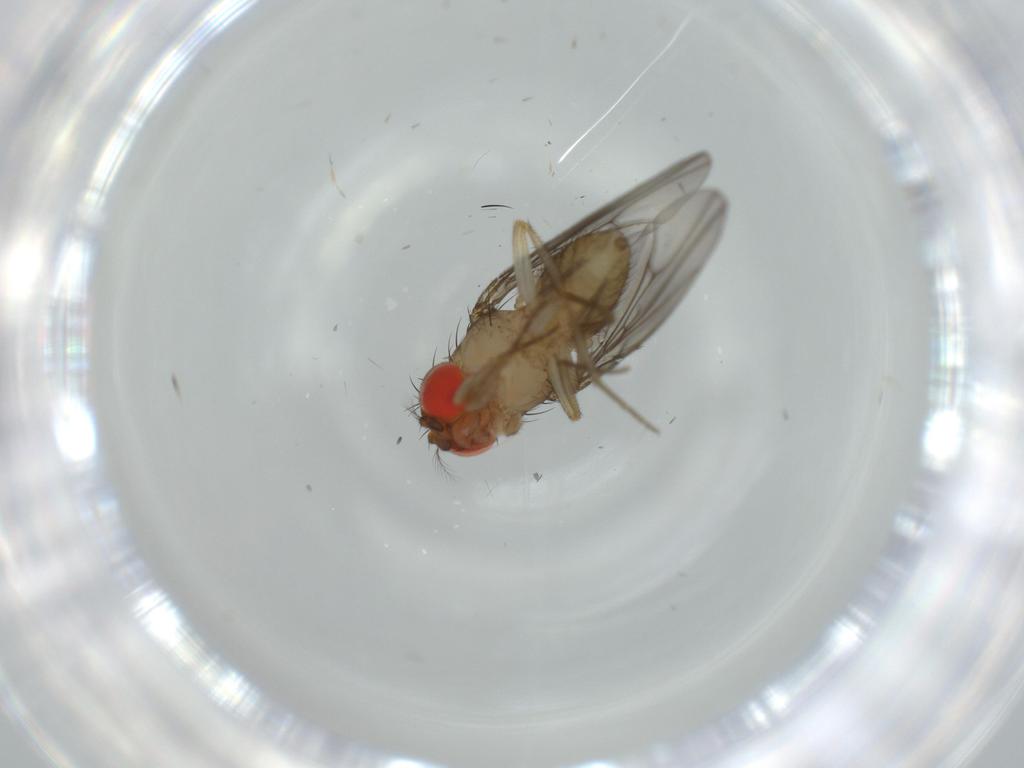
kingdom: Animalia
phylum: Arthropoda
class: Insecta
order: Diptera
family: Drosophilidae
